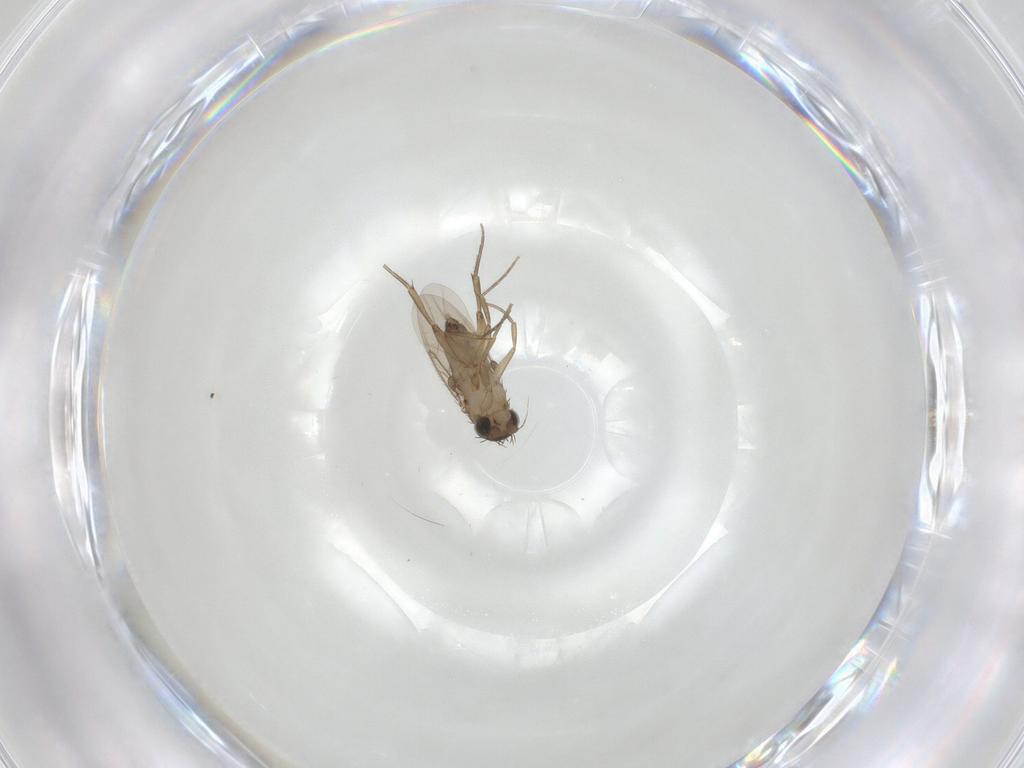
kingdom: Animalia
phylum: Arthropoda
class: Insecta
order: Diptera
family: Phoridae
